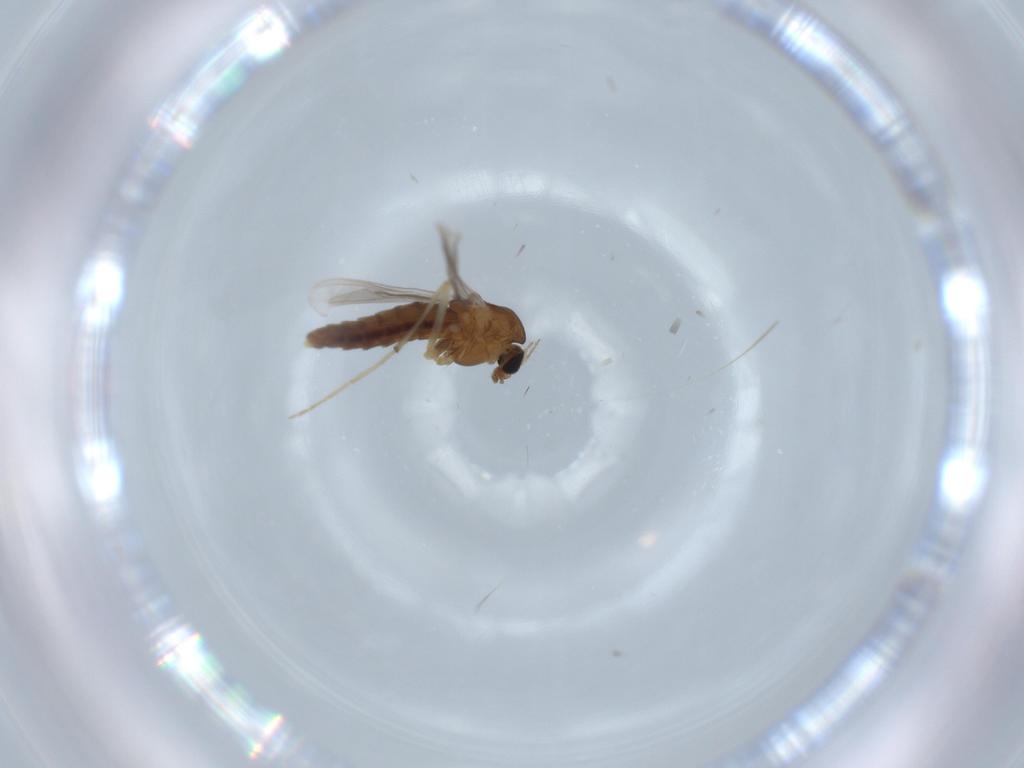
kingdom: Animalia
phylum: Arthropoda
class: Insecta
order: Diptera
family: Chironomidae
